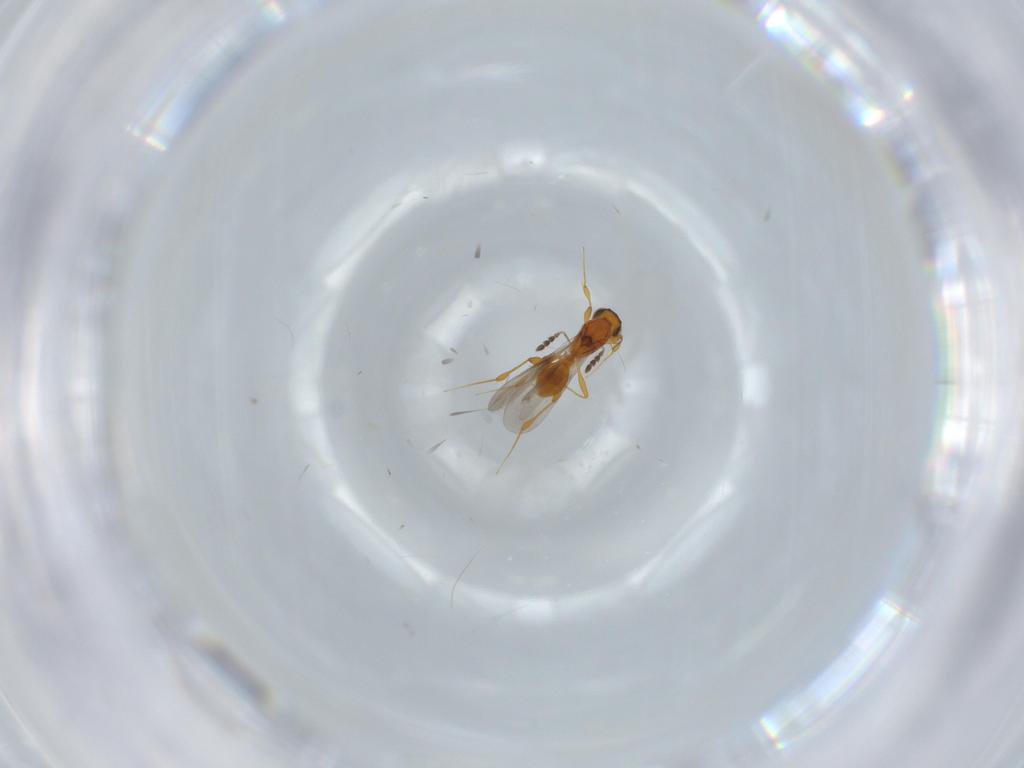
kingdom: Animalia
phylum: Arthropoda
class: Insecta
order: Hymenoptera
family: Platygastridae
